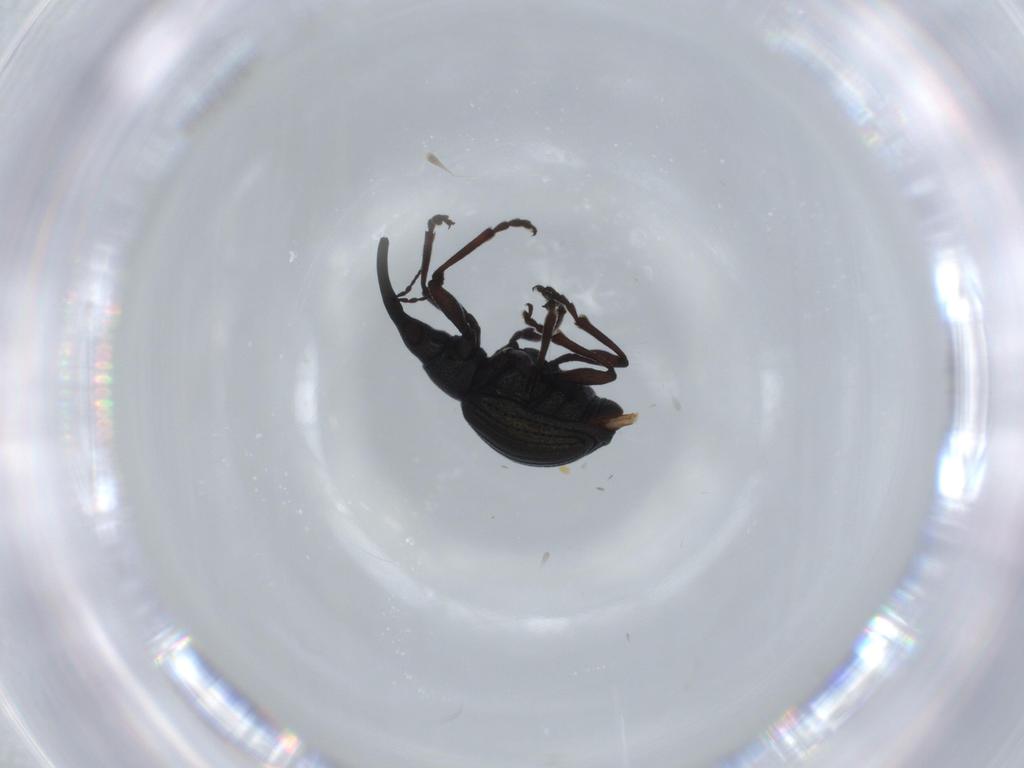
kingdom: Animalia
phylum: Arthropoda
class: Insecta
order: Coleoptera
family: Brentidae
